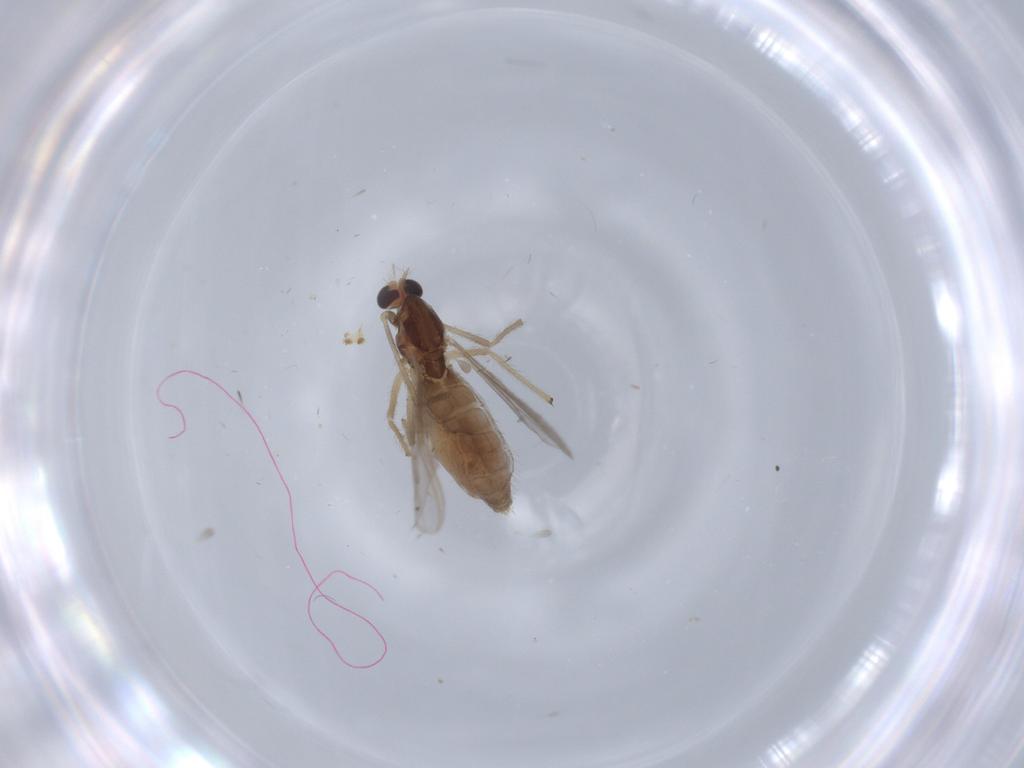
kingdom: Animalia
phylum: Arthropoda
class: Insecta
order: Diptera
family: Chironomidae
